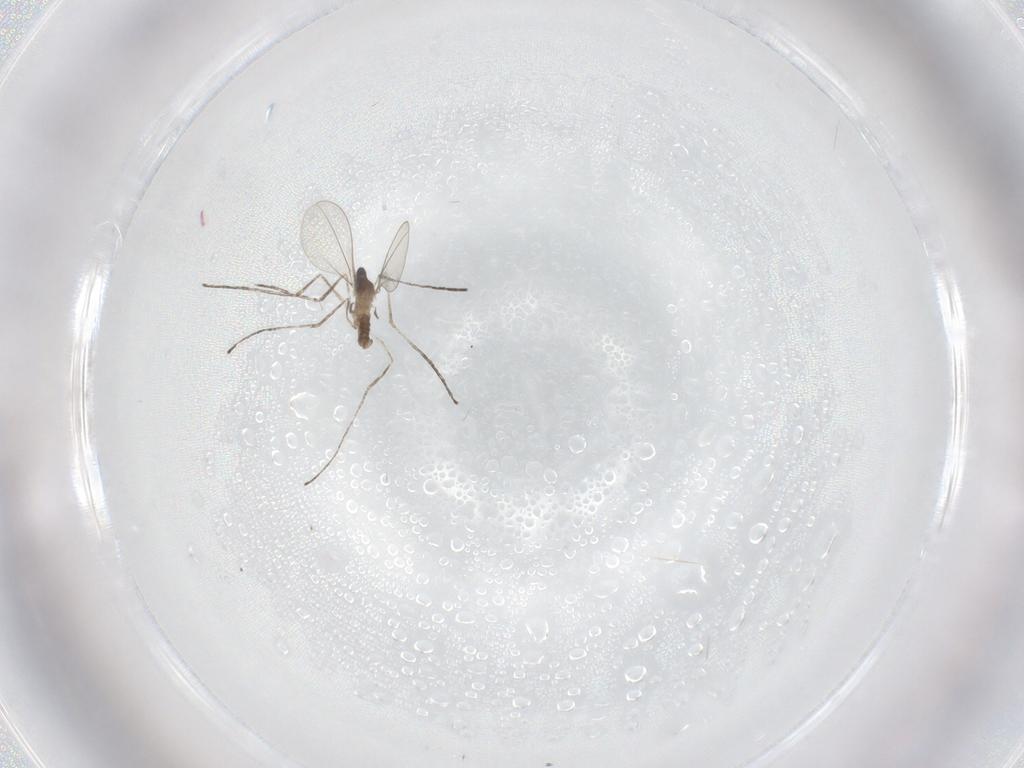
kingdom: Animalia
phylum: Arthropoda
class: Insecta
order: Diptera
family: Cecidomyiidae
